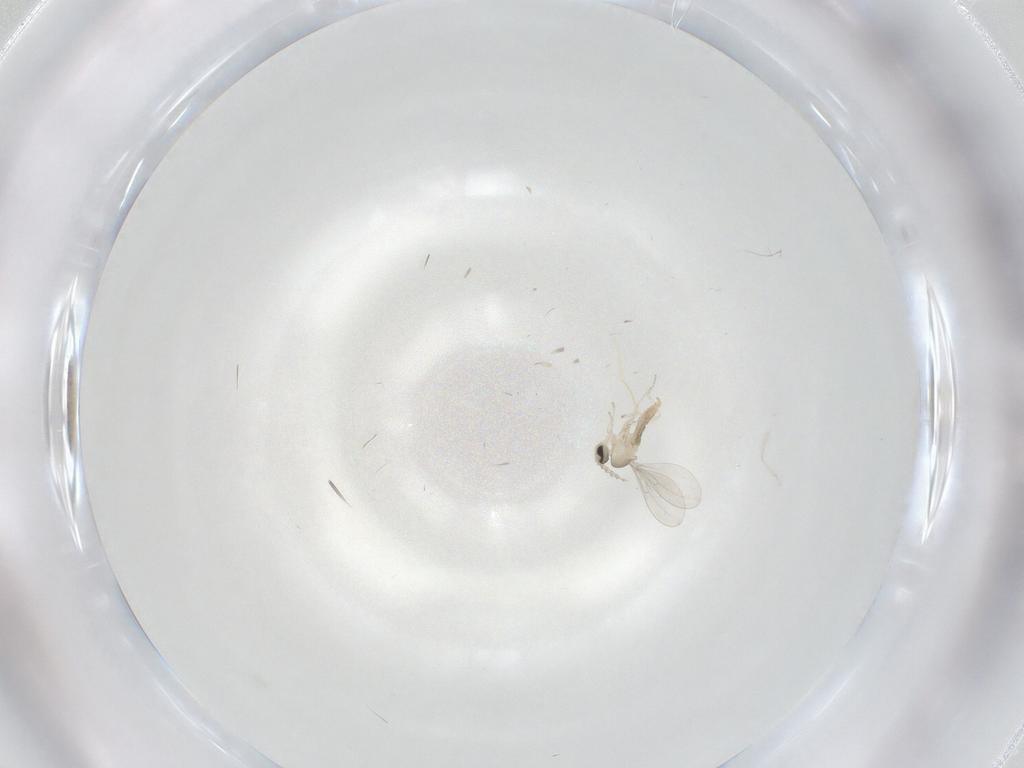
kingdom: Animalia
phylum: Arthropoda
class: Insecta
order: Diptera
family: Cecidomyiidae
